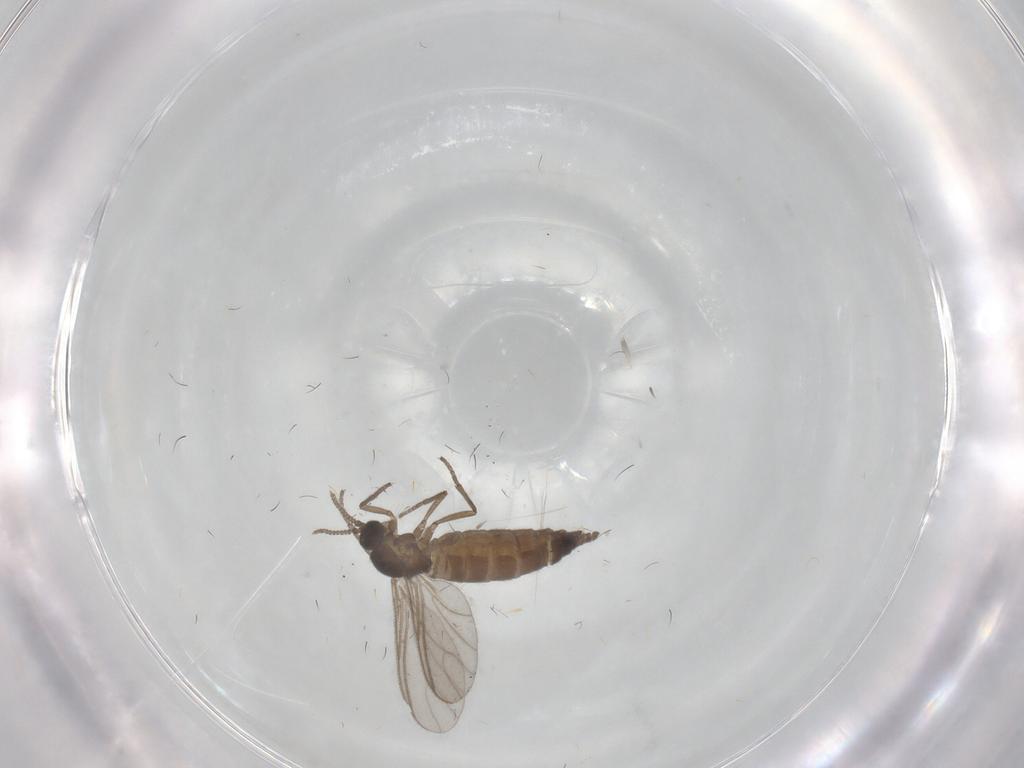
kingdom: Animalia
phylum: Arthropoda
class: Insecta
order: Diptera
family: Sciaridae
